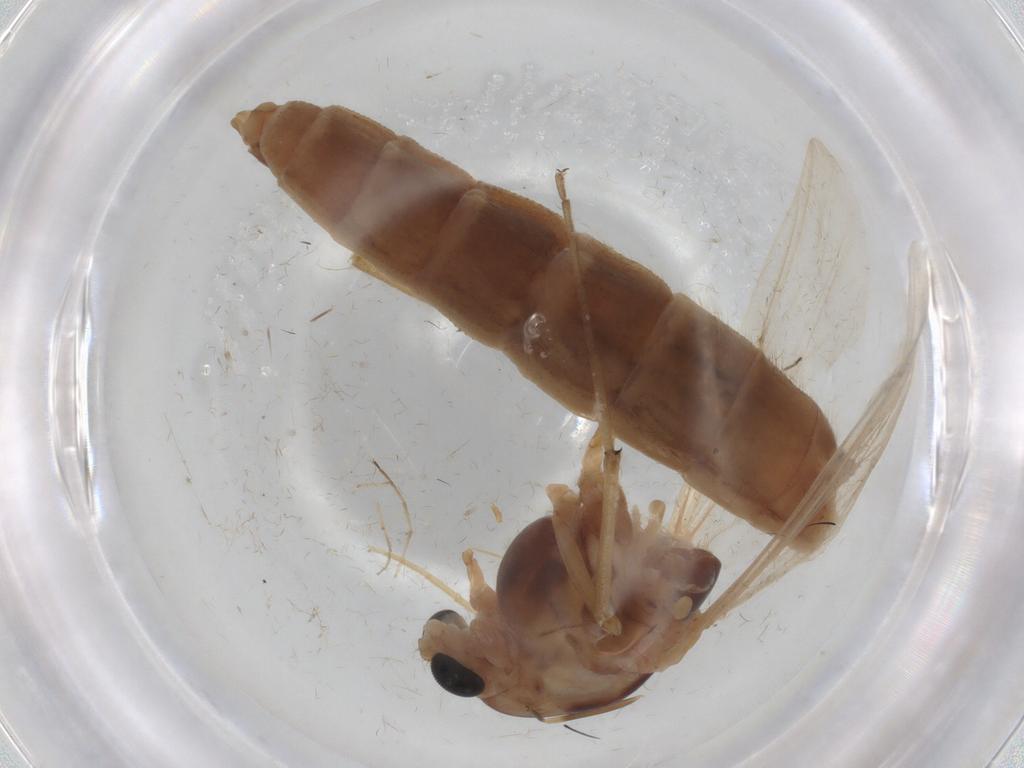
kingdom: Animalia
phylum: Arthropoda
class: Insecta
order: Diptera
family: Chironomidae
